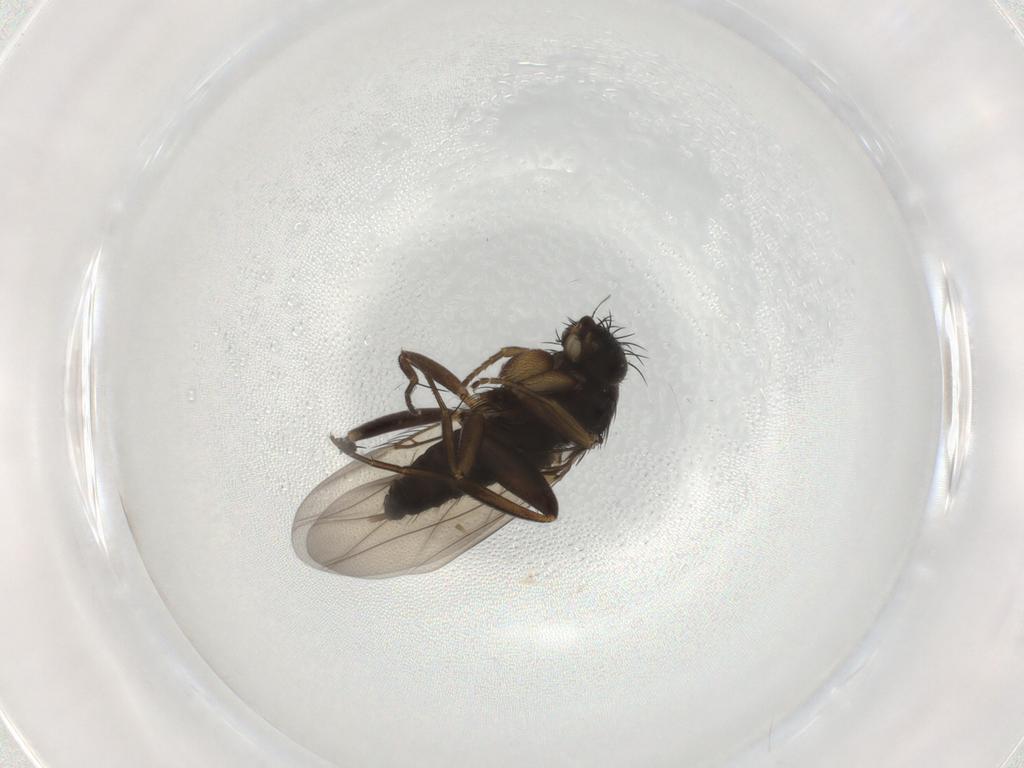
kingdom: Animalia
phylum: Arthropoda
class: Insecta
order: Diptera
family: Phoridae
